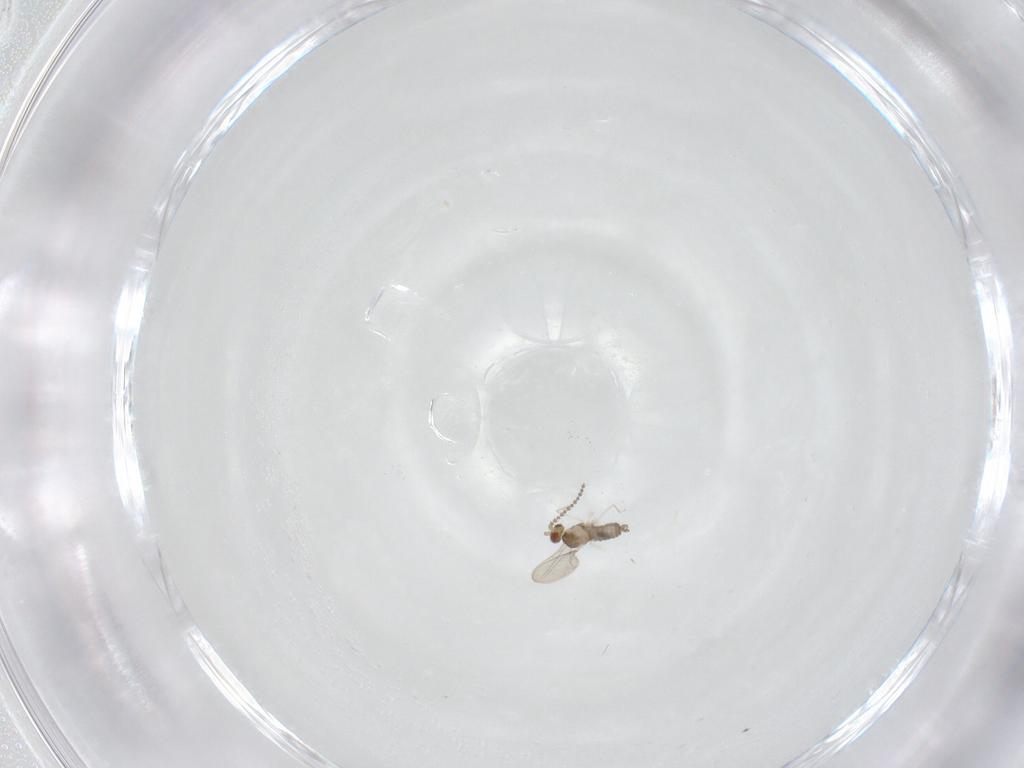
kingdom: Animalia
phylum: Arthropoda
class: Insecta
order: Diptera
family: Cecidomyiidae
